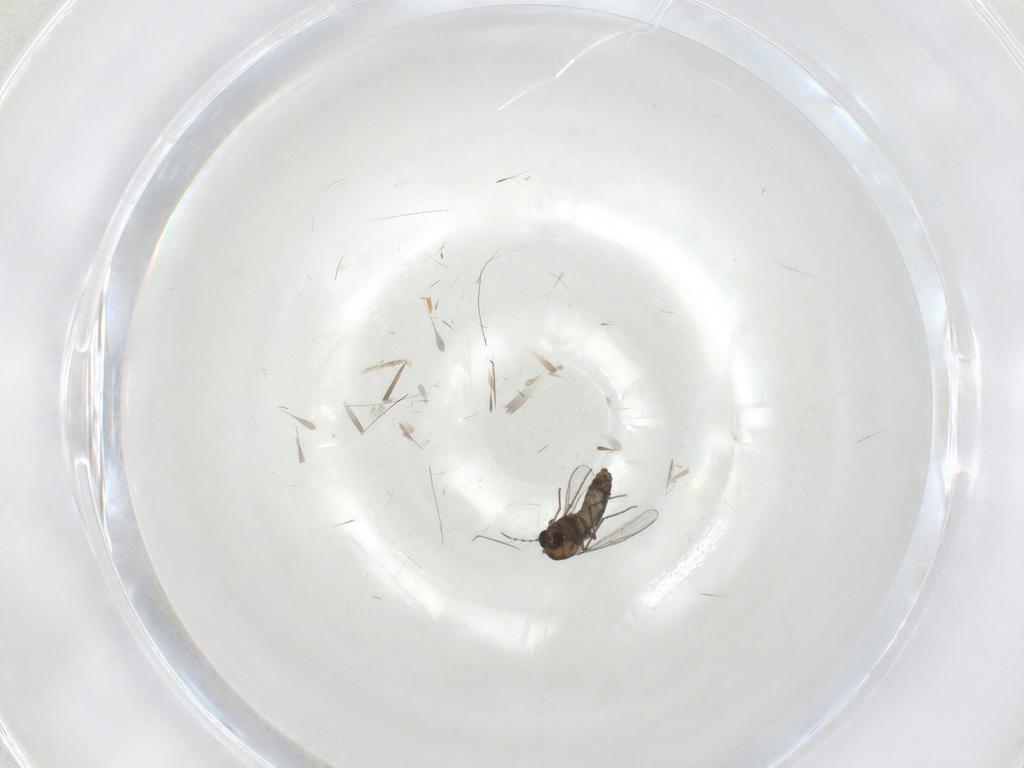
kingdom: Animalia
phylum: Arthropoda
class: Insecta
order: Diptera
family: Chironomidae
